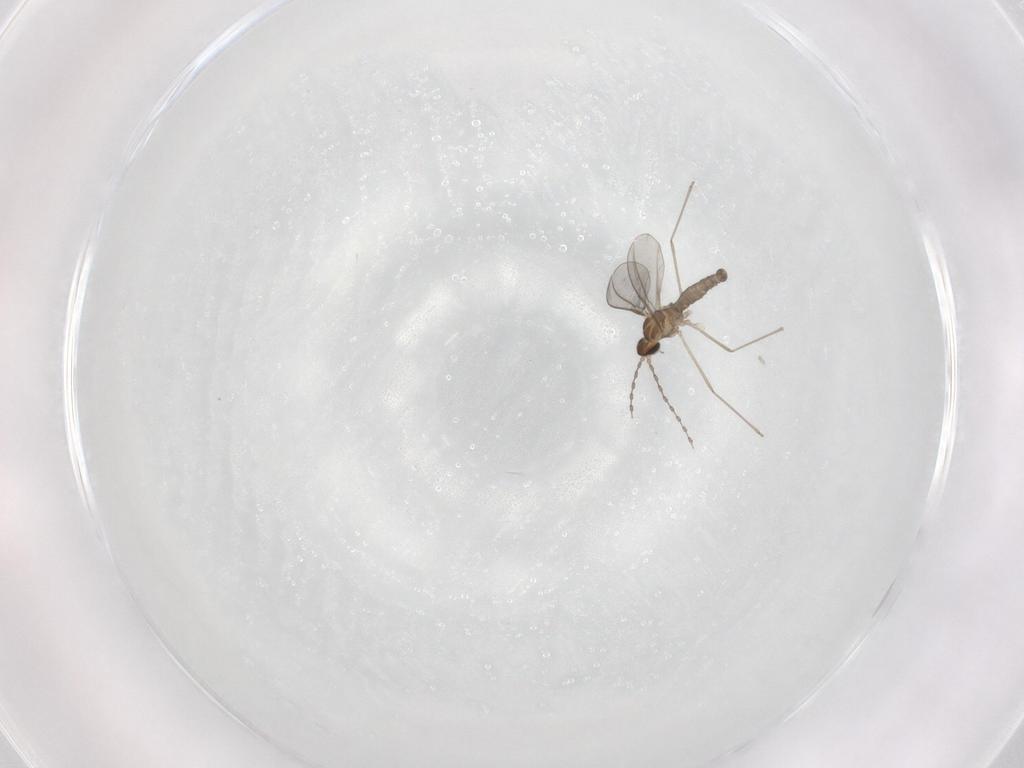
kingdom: Animalia
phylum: Arthropoda
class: Insecta
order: Diptera
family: Cecidomyiidae
